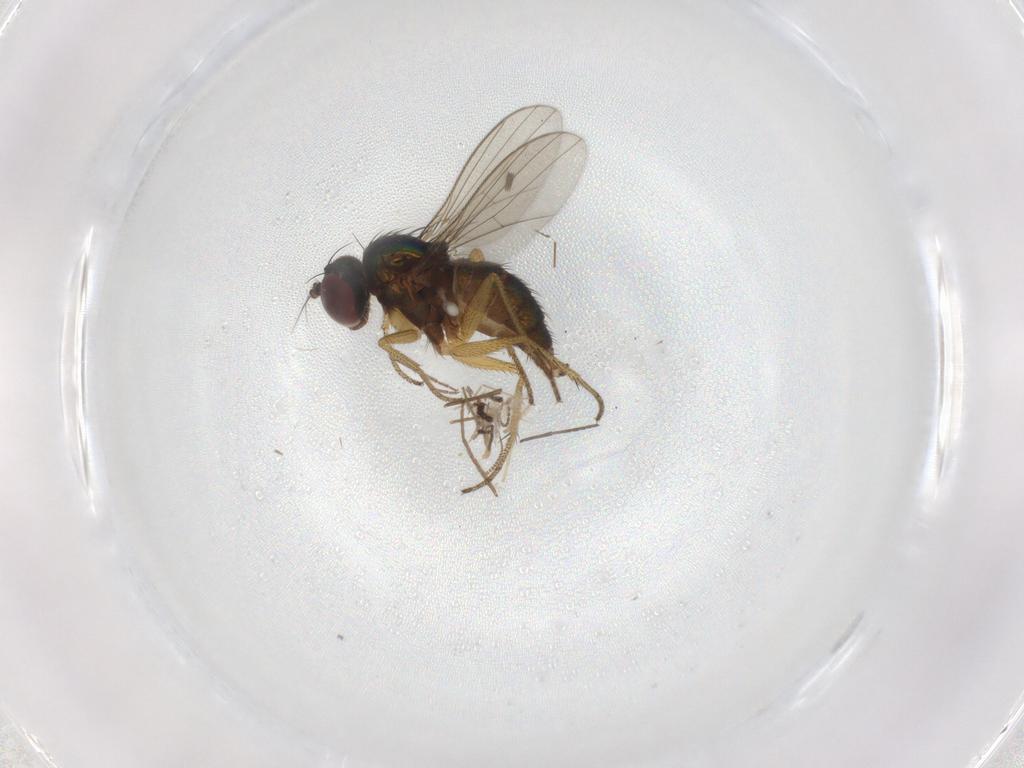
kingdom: Animalia
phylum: Arthropoda
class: Insecta
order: Diptera
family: Chironomidae
